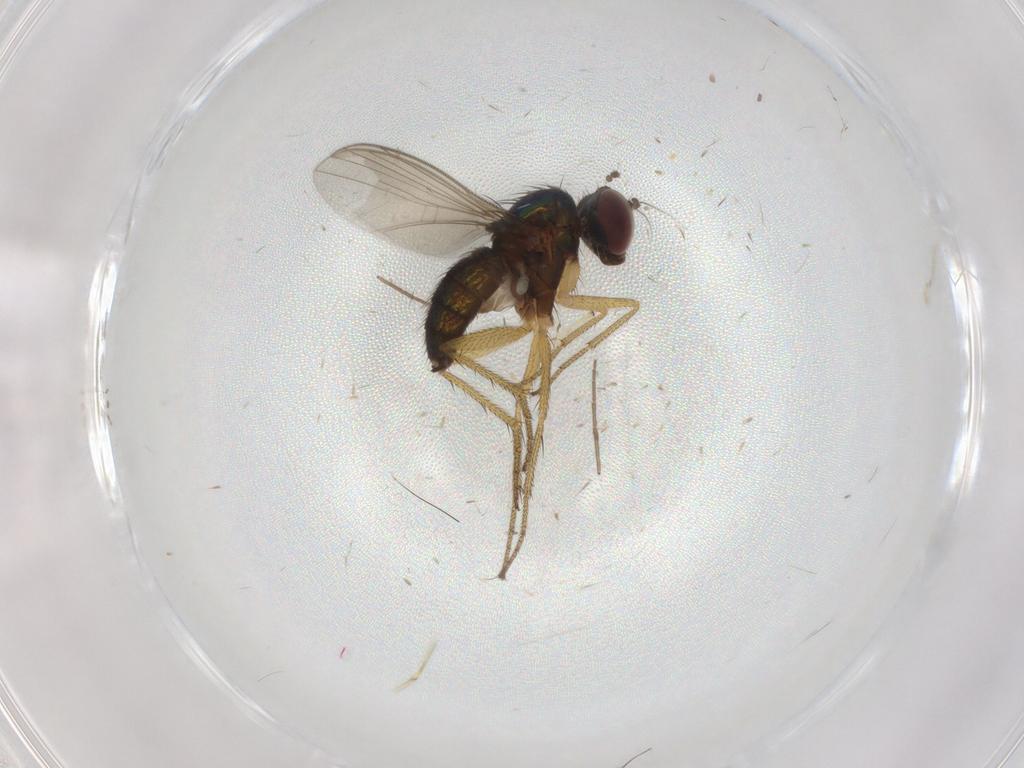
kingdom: Animalia
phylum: Arthropoda
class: Insecta
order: Diptera
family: Chironomidae
